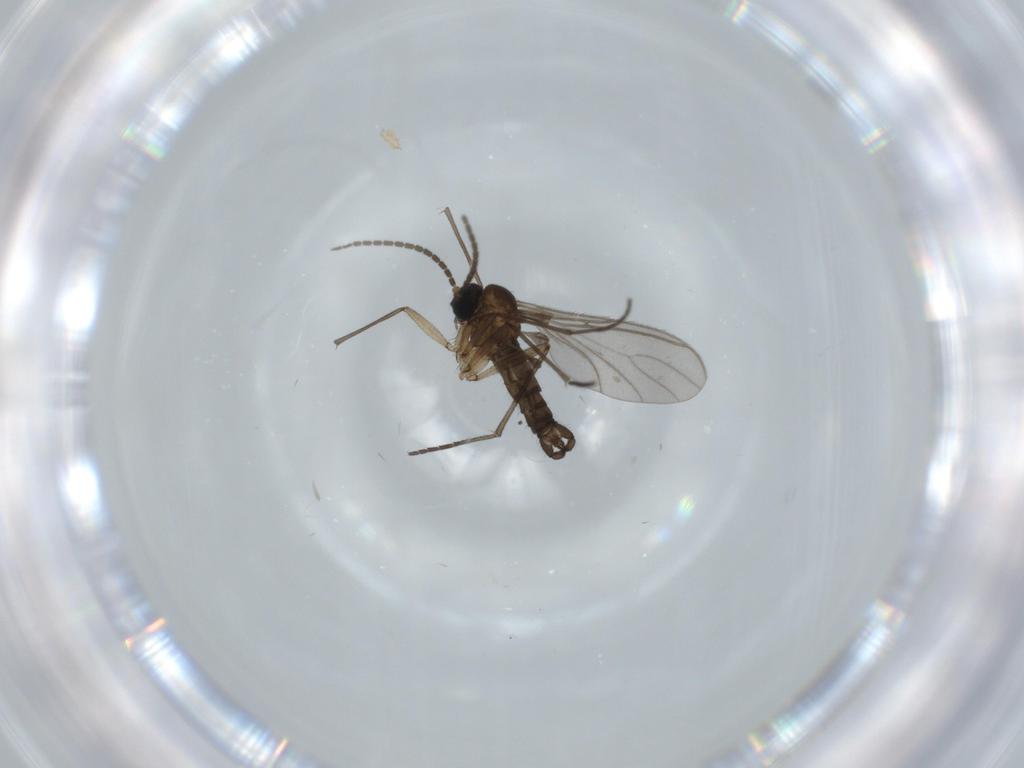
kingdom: Animalia
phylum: Arthropoda
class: Insecta
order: Diptera
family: Sciaridae
